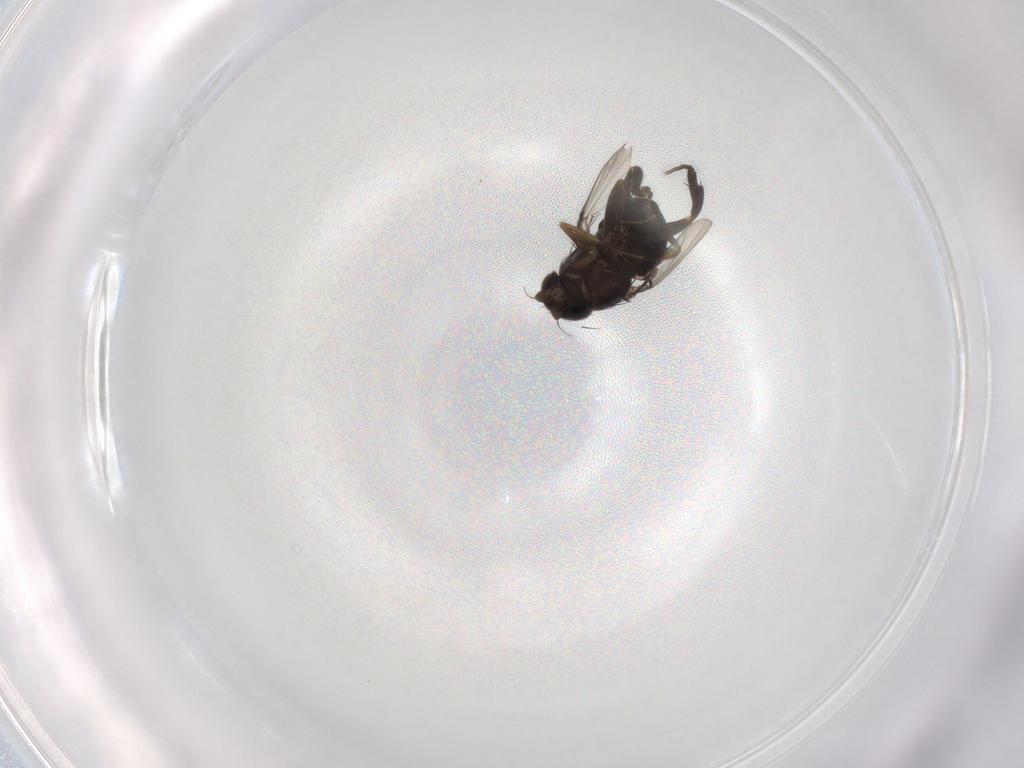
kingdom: Animalia
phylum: Arthropoda
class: Insecta
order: Diptera
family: Phoridae
